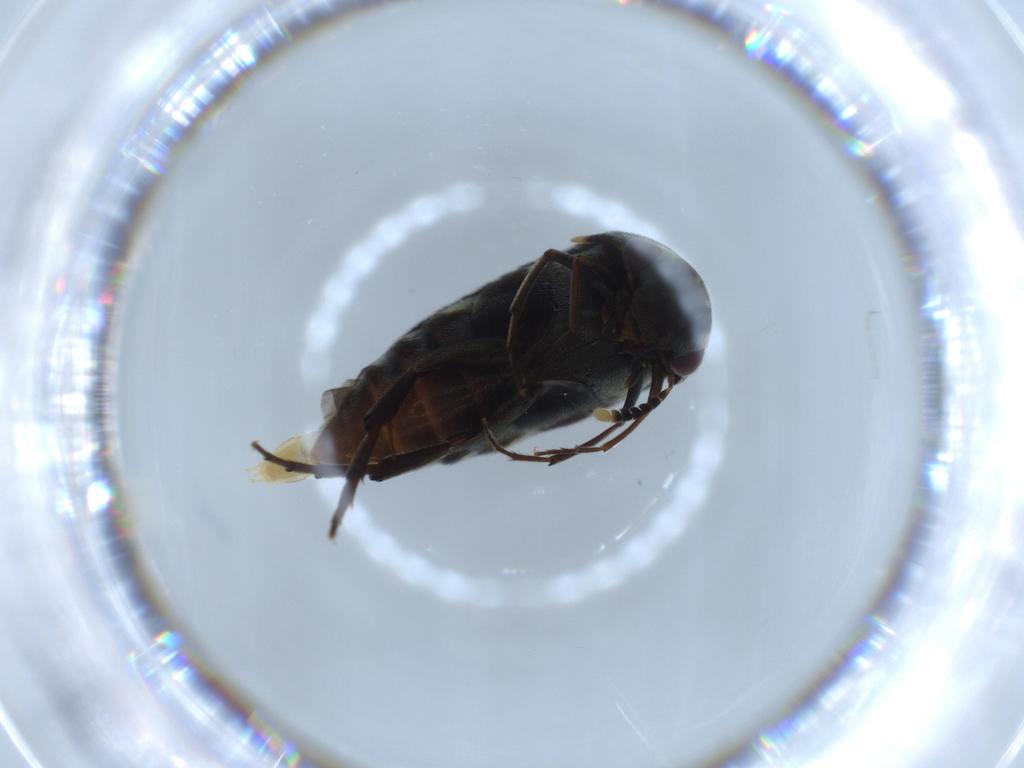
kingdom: Animalia
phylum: Arthropoda
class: Insecta
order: Coleoptera
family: Mordellidae
